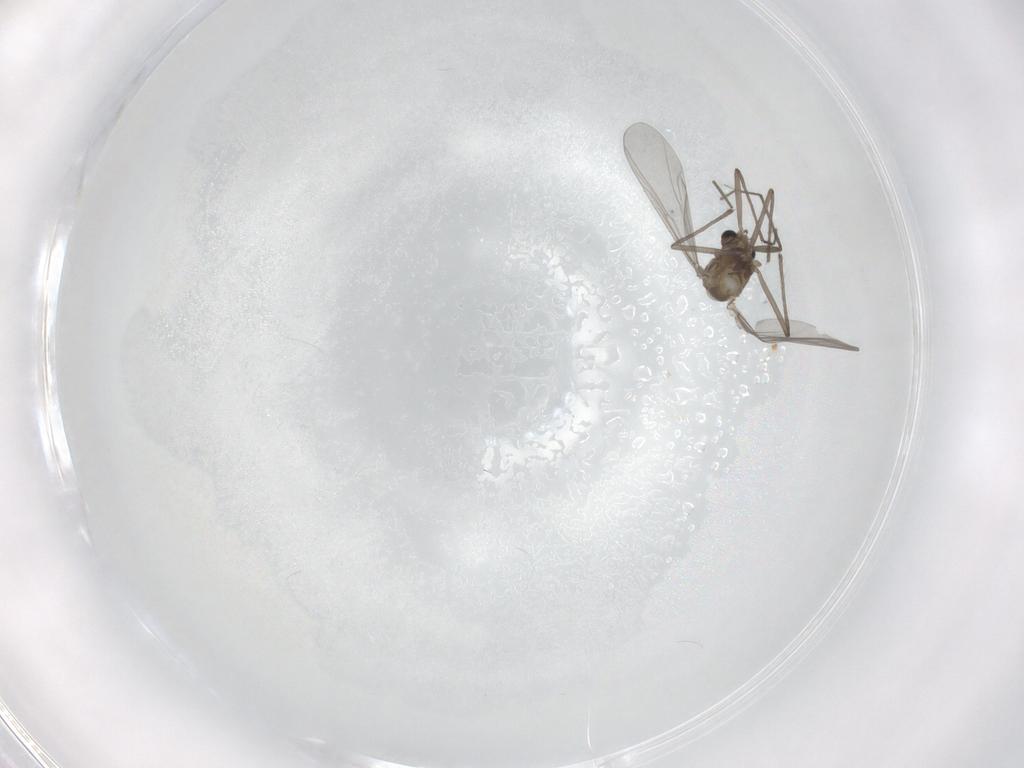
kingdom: Animalia
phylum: Arthropoda
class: Insecta
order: Diptera
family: Chironomidae
